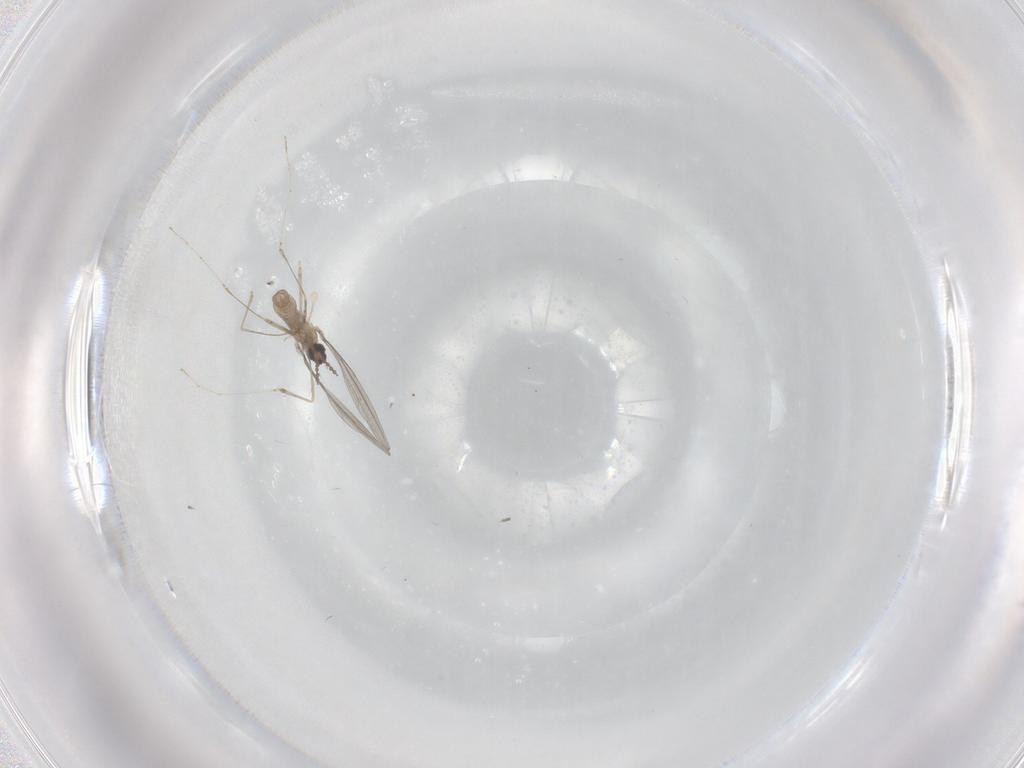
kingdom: Animalia
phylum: Arthropoda
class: Insecta
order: Diptera
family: Cecidomyiidae
